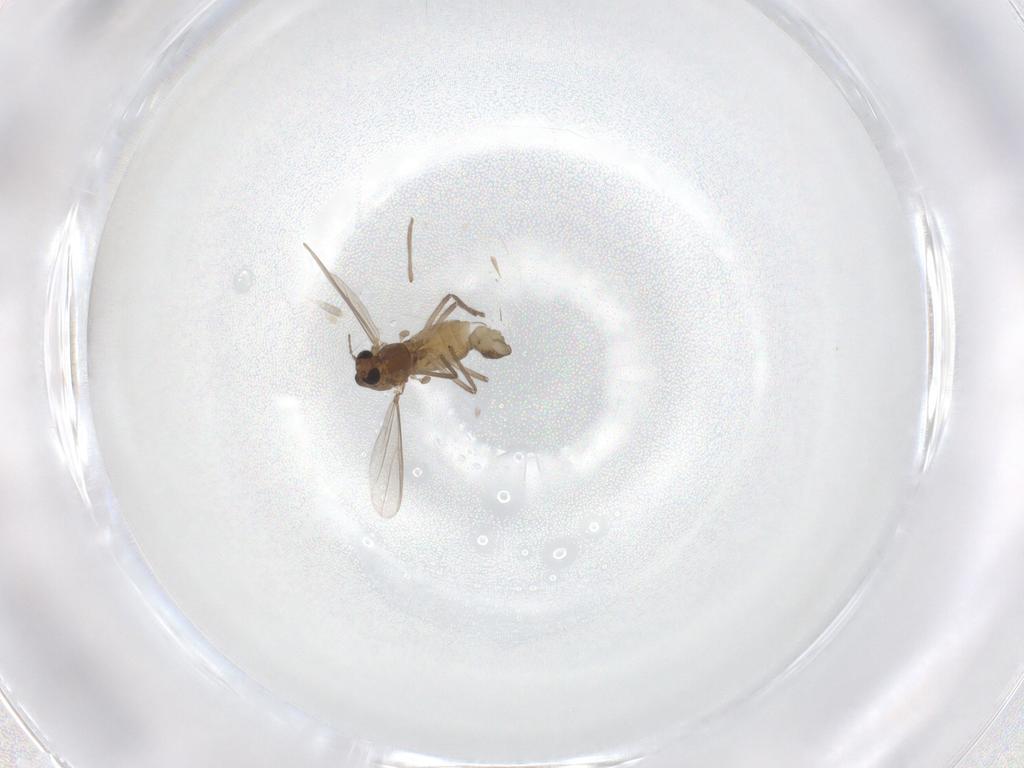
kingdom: Animalia
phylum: Arthropoda
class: Insecta
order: Diptera
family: Chironomidae
